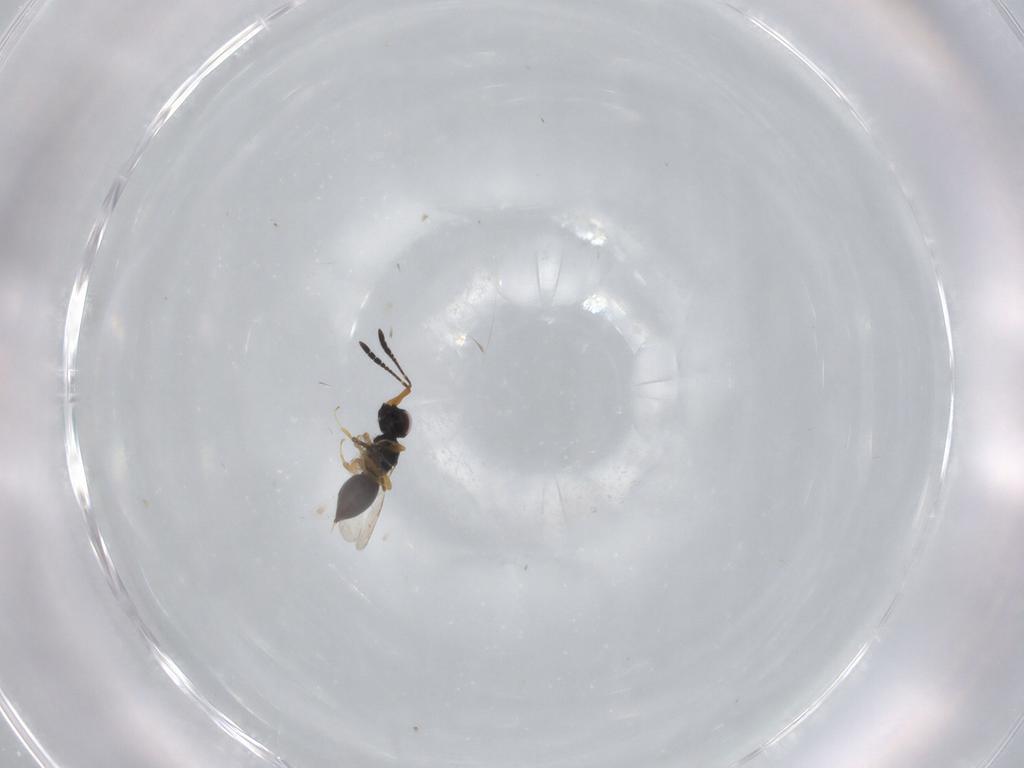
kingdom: Animalia
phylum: Arthropoda
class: Insecta
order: Hymenoptera
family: Ceraphronidae
